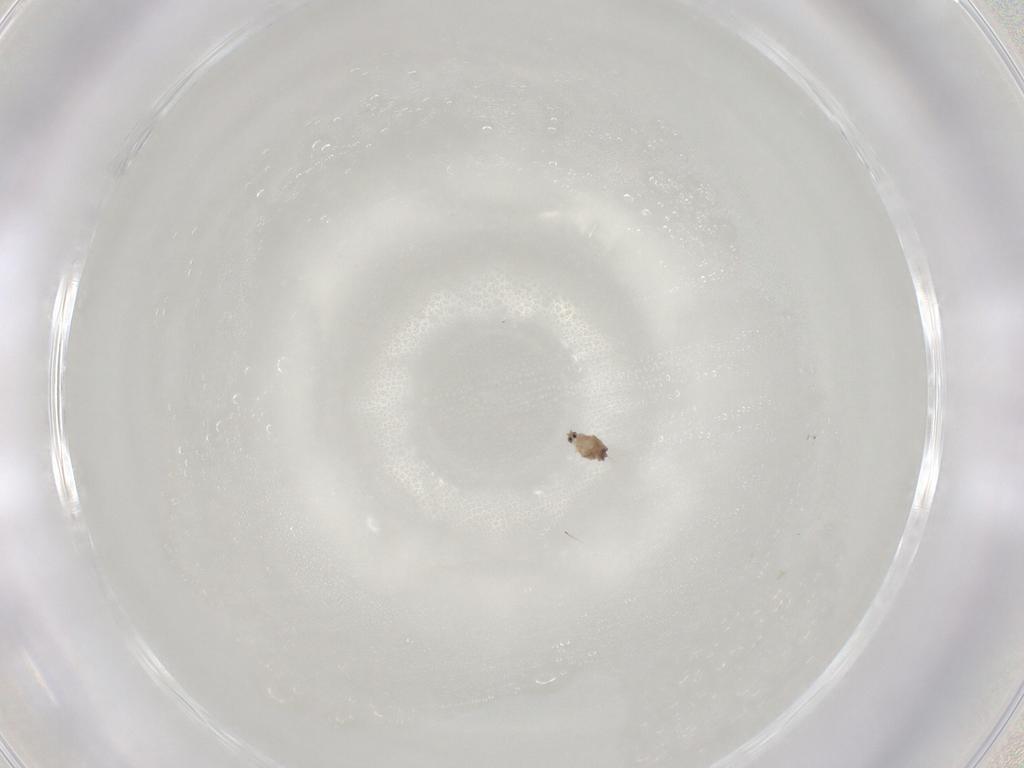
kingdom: Animalia
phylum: Arthropoda
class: Insecta
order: Hemiptera
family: Coccoidea_incertae_sedis
